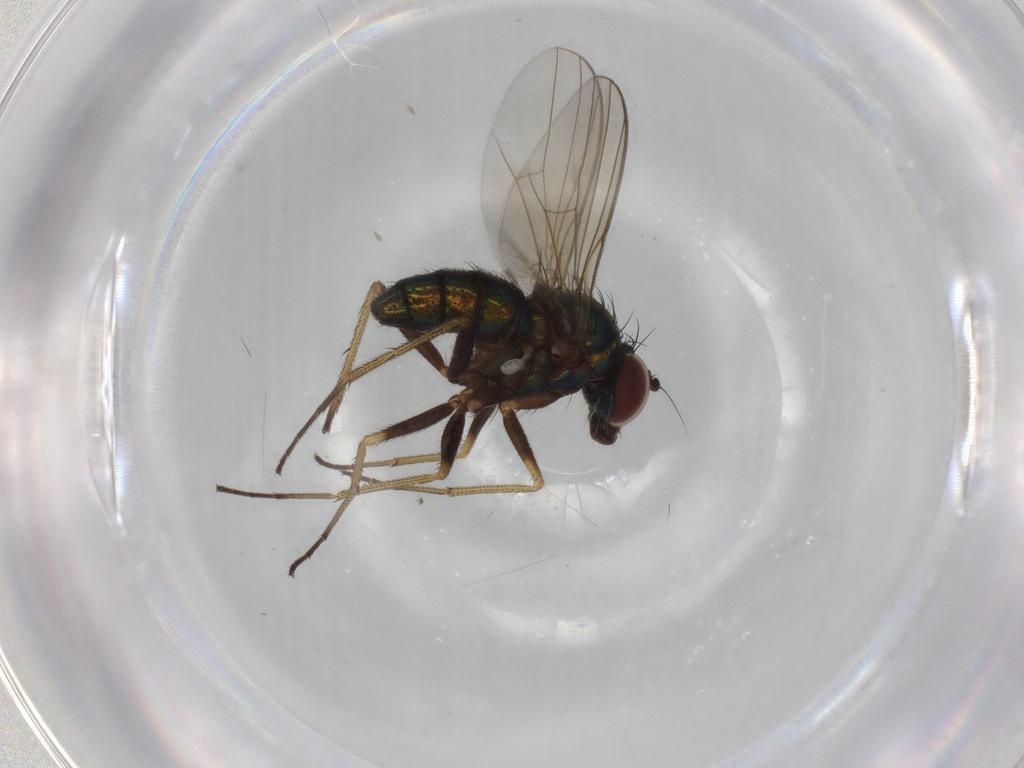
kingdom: Animalia
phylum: Arthropoda
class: Insecta
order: Diptera
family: Dolichopodidae
